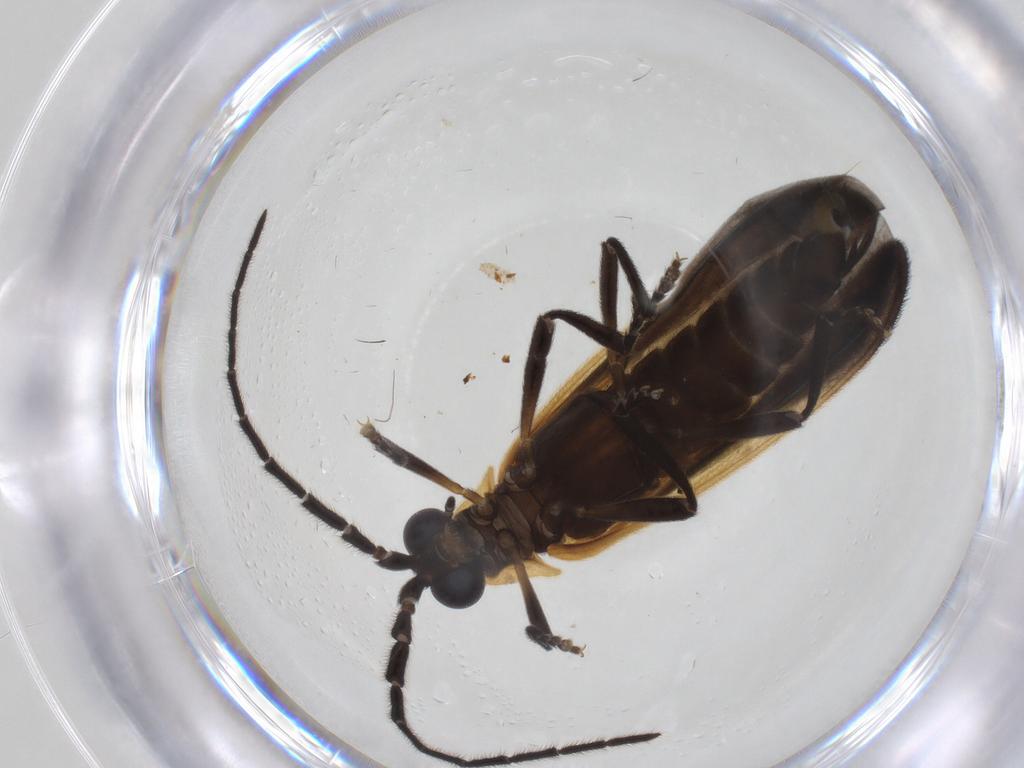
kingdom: Animalia
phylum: Arthropoda
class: Insecta
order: Coleoptera
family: Lycidae
